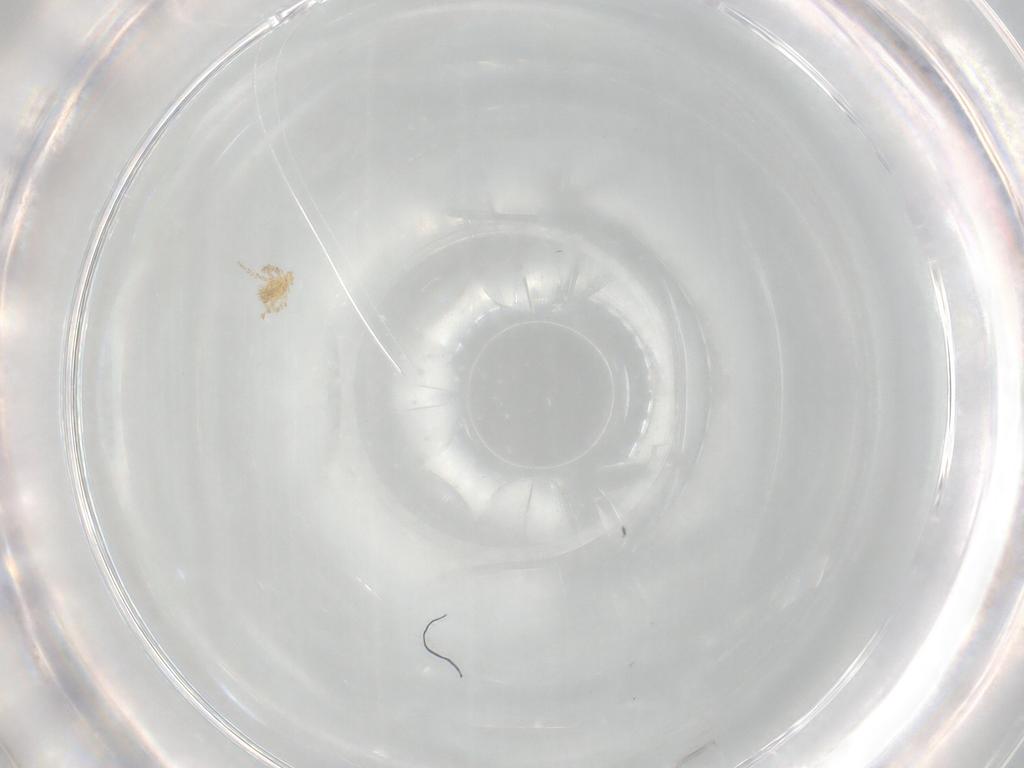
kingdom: Animalia
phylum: Arthropoda
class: Arachnida
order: Trombidiformes
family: Erythraeidae
